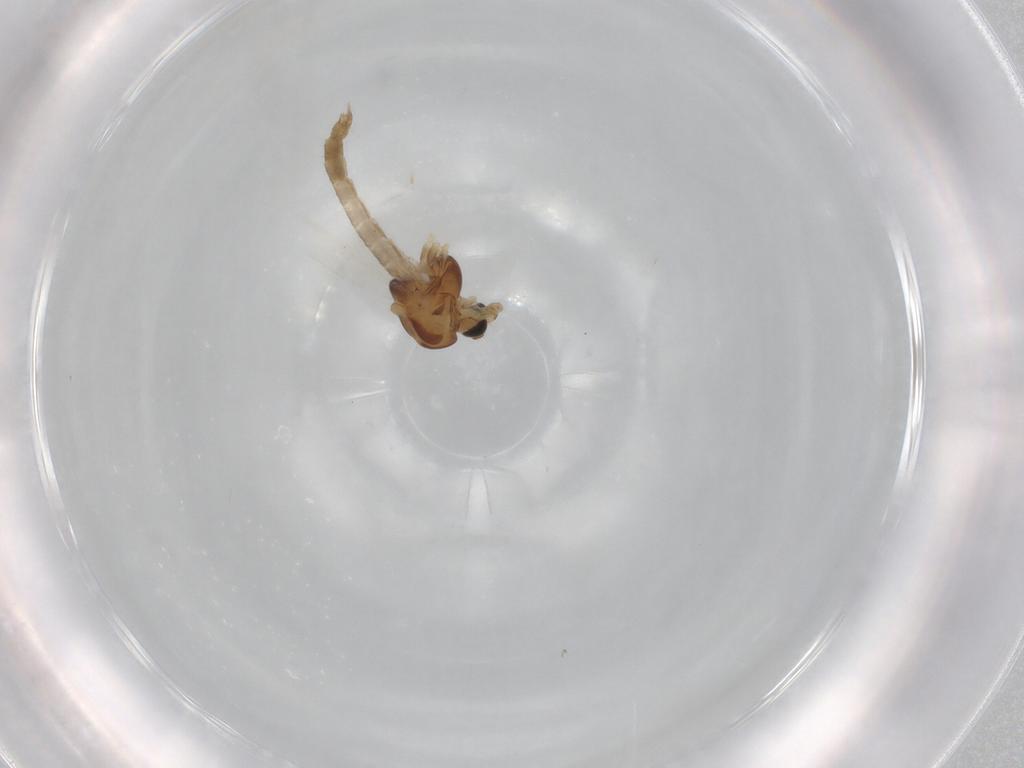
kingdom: Animalia
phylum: Arthropoda
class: Insecta
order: Diptera
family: Chironomidae
